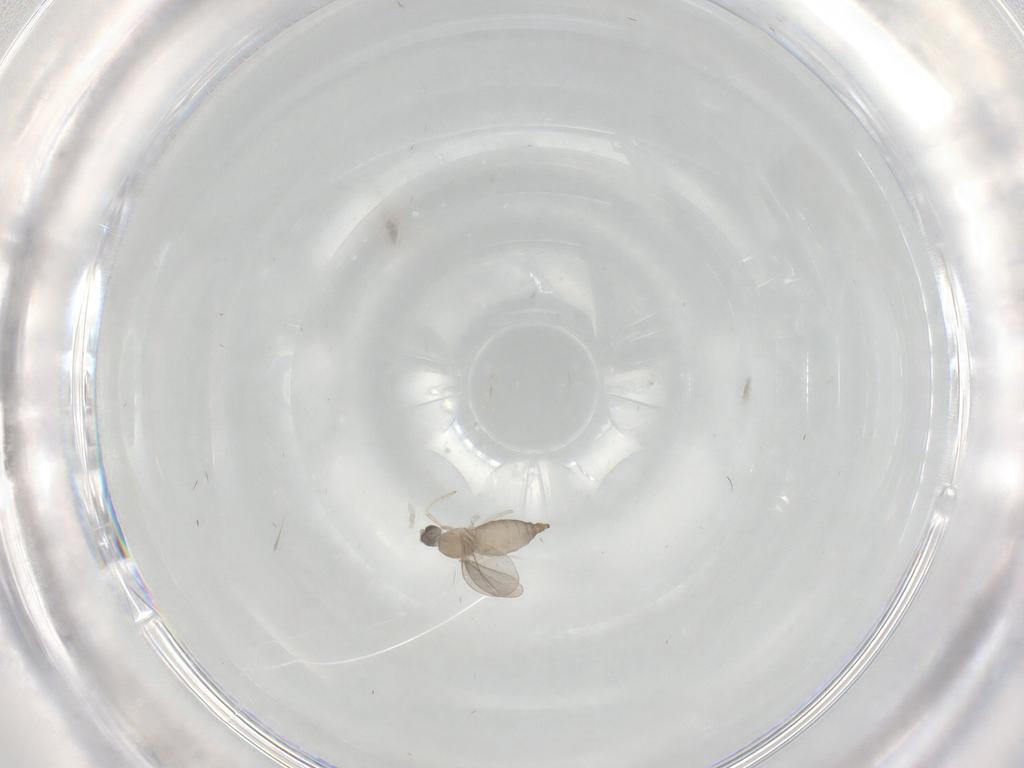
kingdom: Animalia
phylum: Arthropoda
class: Insecta
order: Diptera
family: Cecidomyiidae
